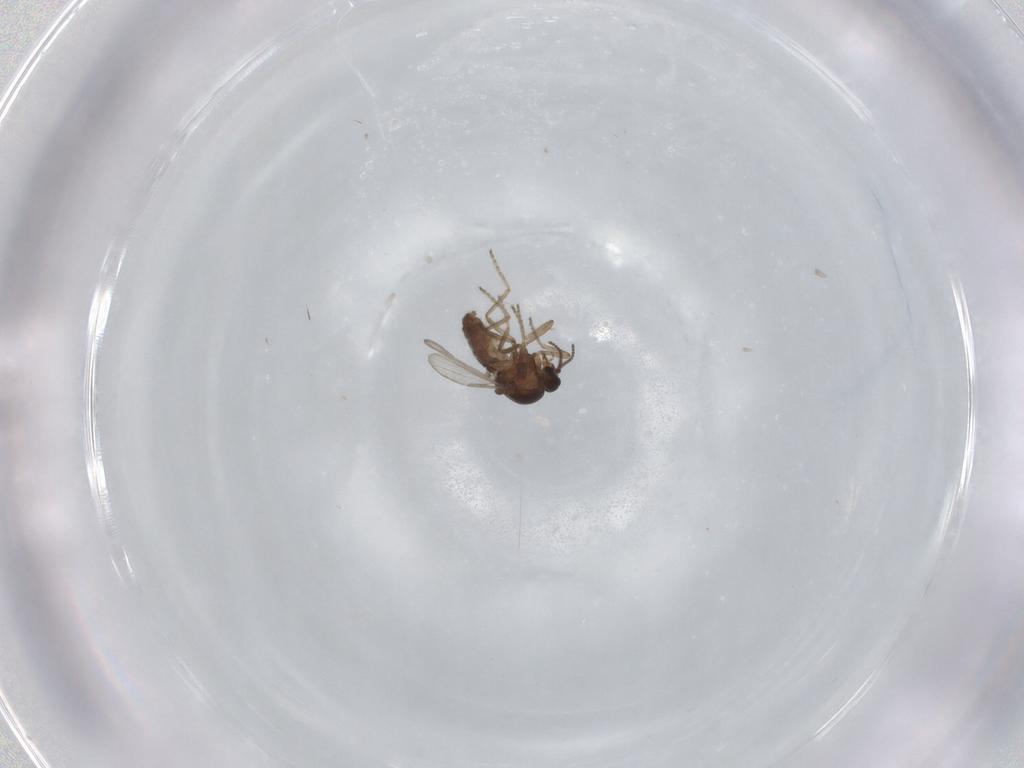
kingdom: Animalia
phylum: Arthropoda
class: Insecta
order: Diptera
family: Ceratopogonidae
